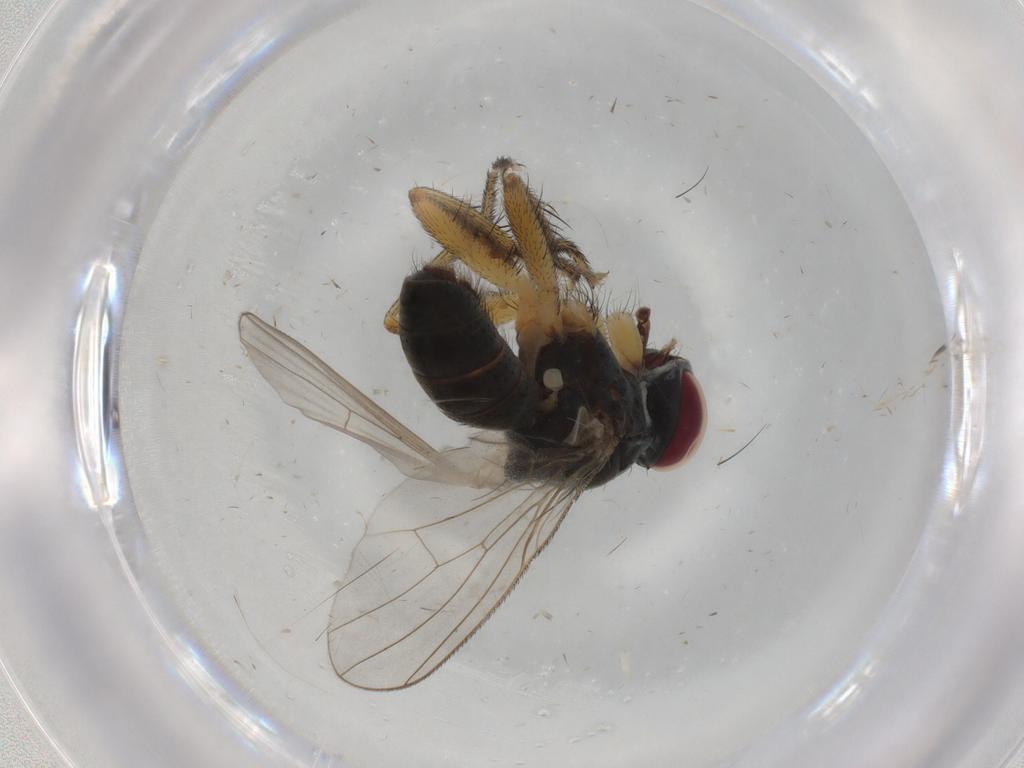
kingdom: Animalia
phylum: Arthropoda
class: Insecta
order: Diptera
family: Muscidae
